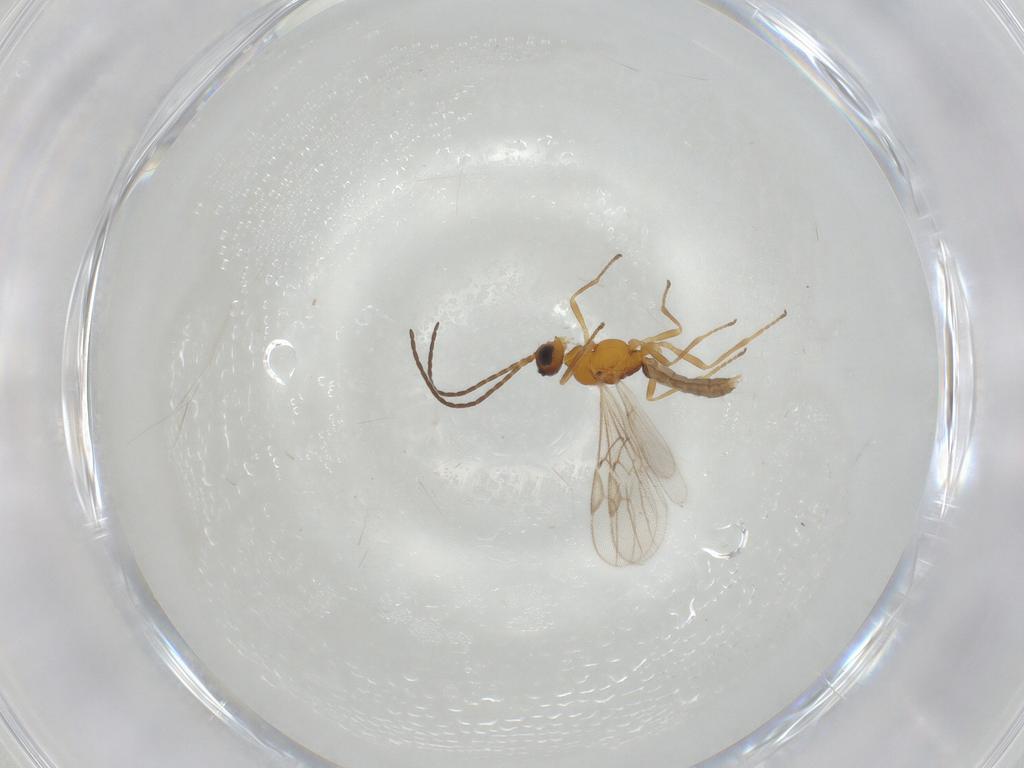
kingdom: Animalia
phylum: Arthropoda
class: Insecta
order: Hymenoptera
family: Braconidae
